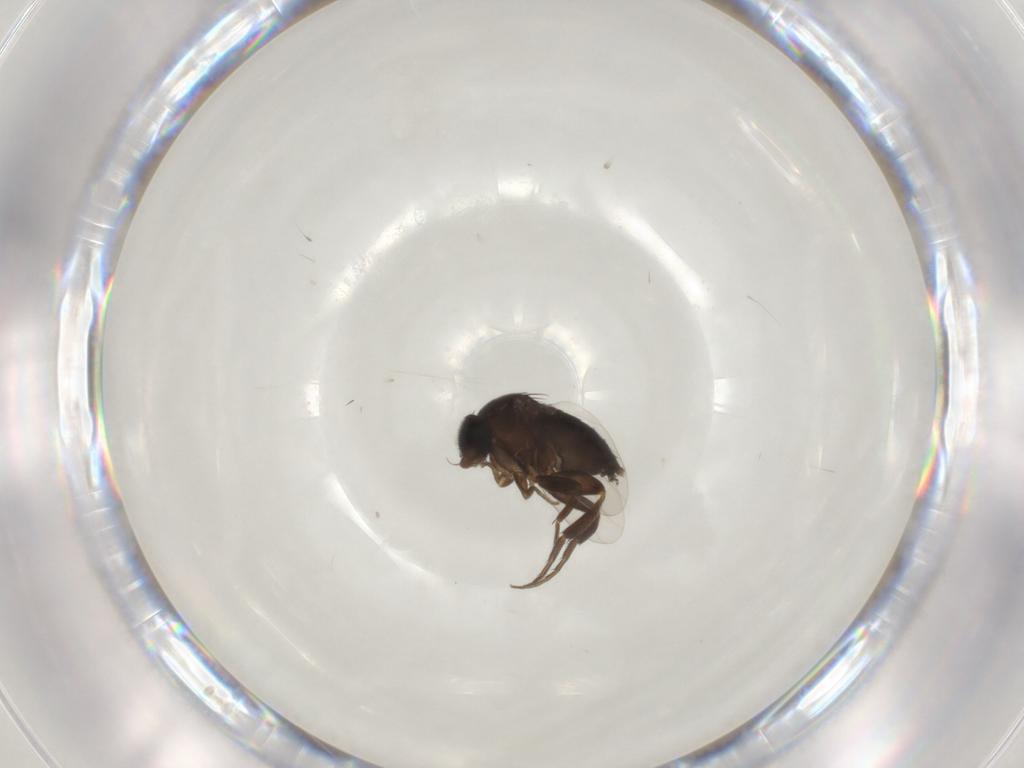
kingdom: Animalia
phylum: Arthropoda
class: Insecta
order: Diptera
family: Phoridae
